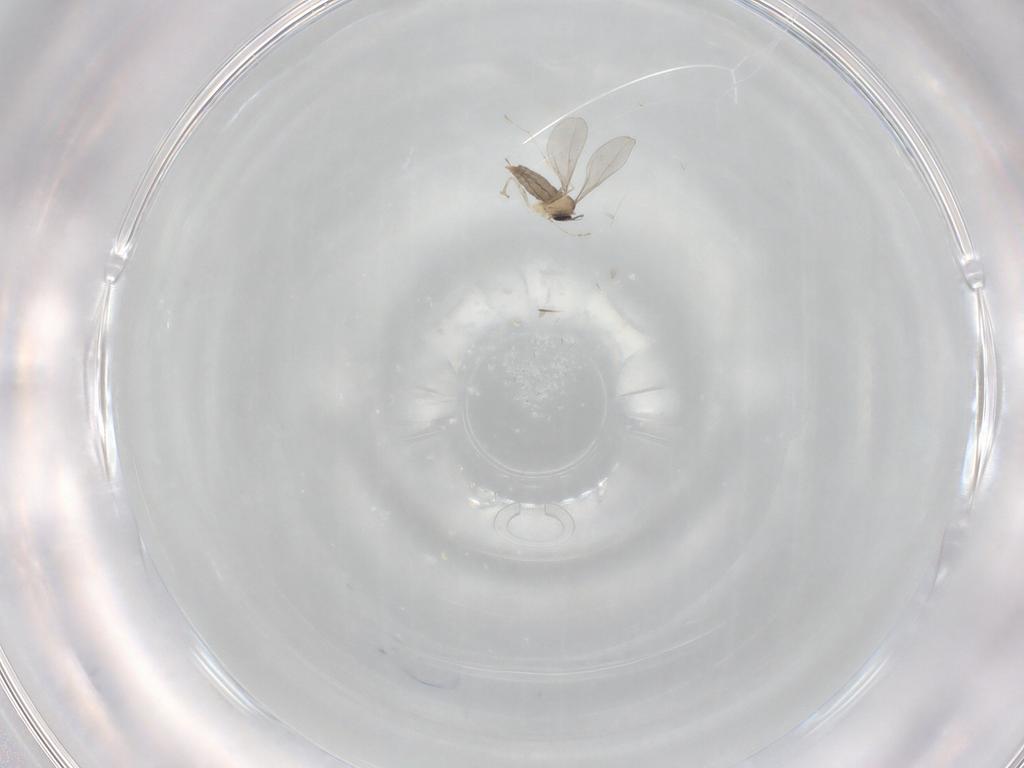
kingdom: Animalia
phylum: Arthropoda
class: Insecta
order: Diptera
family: Cecidomyiidae
